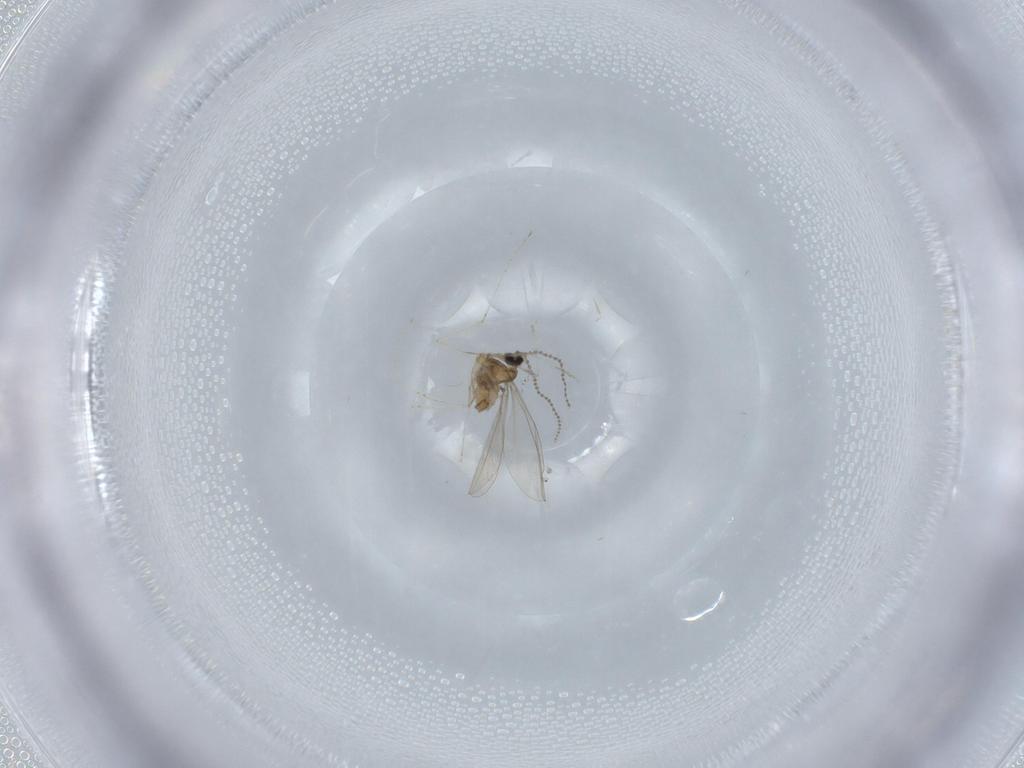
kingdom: Animalia
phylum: Arthropoda
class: Insecta
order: Diptera
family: Cecidomyiidae
